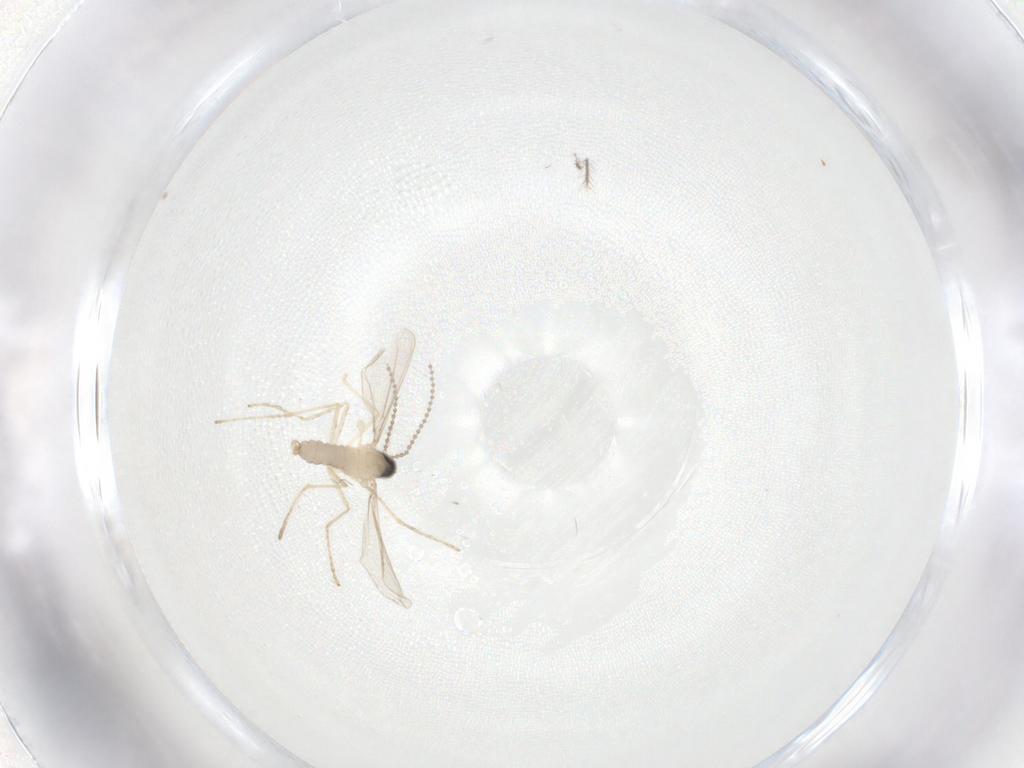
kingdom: Animalia
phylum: Arthropoda
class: Insecta
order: Diptera
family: Cecidomyiidae
